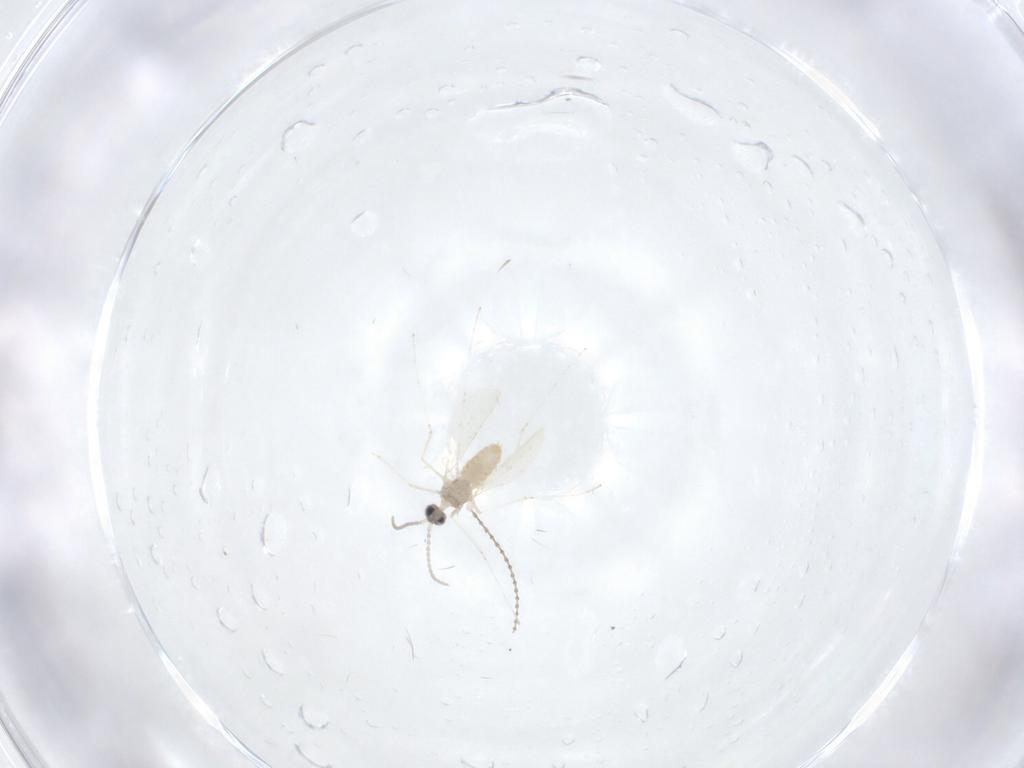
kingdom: Animalia
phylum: Arthropoda
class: Insecta
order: Diptera
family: Cecidomyiidae
